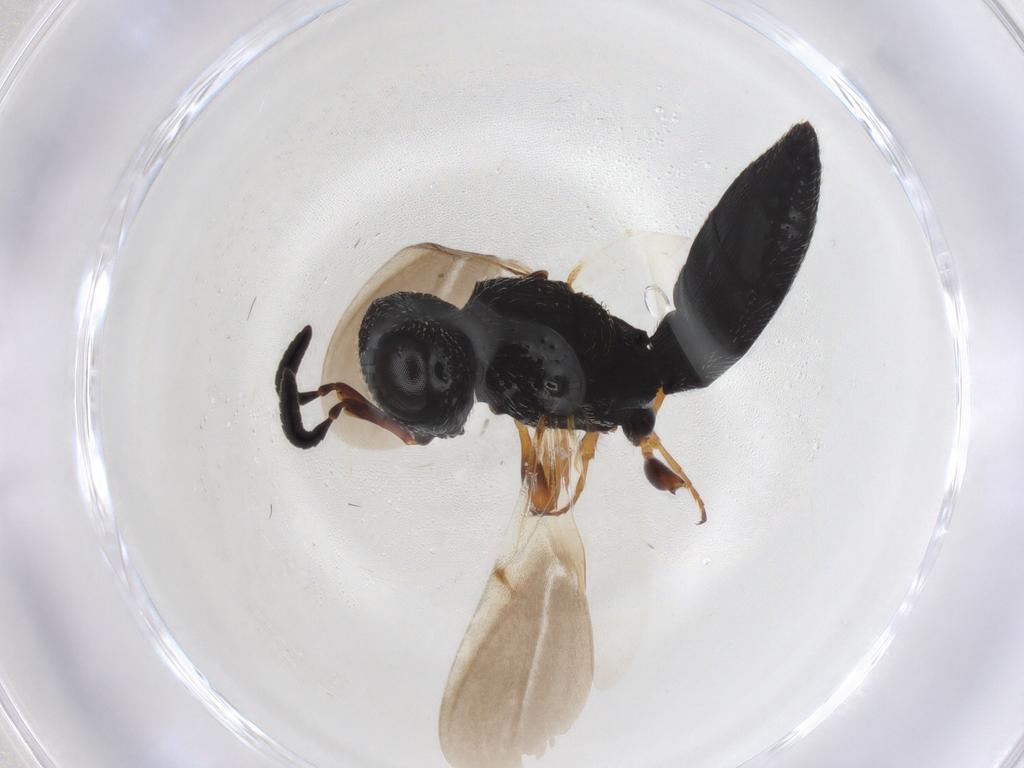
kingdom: Animalia
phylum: Arthropoda
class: Insecta
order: Hymenoptera
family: Scelionidae
